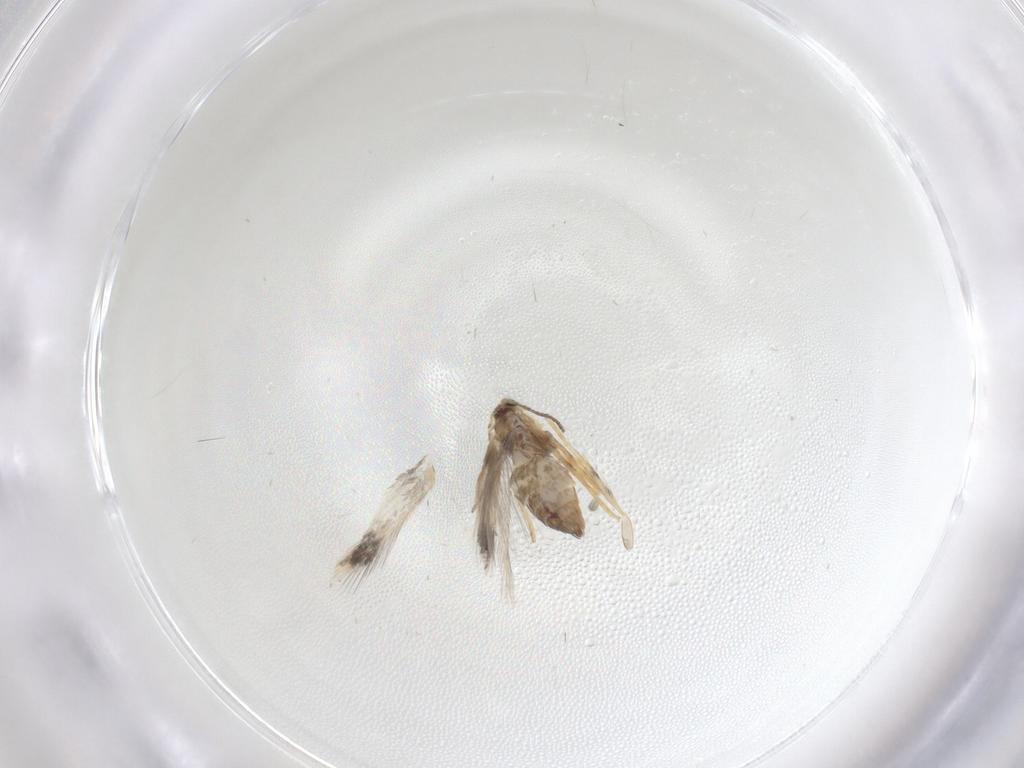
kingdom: Animalia
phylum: Arthropoda
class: Insecta
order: Lepidoptera
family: Nepticulidae
